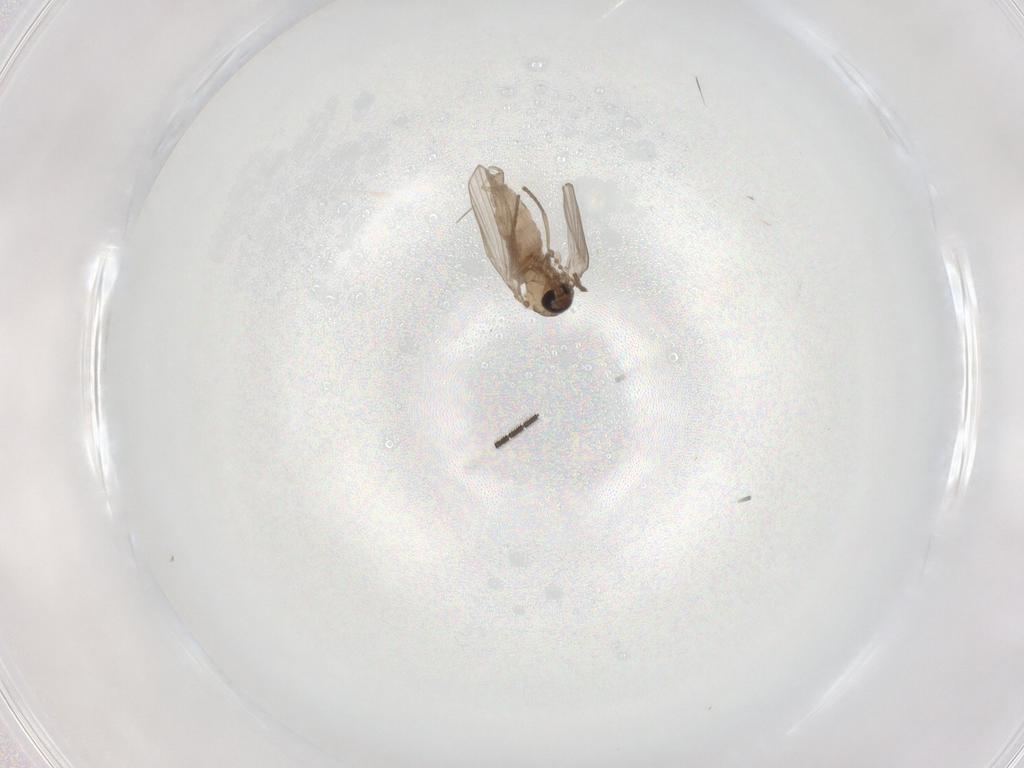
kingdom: Animalia
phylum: Arthropoda
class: Insecta
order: Diptera
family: Psychodidae
